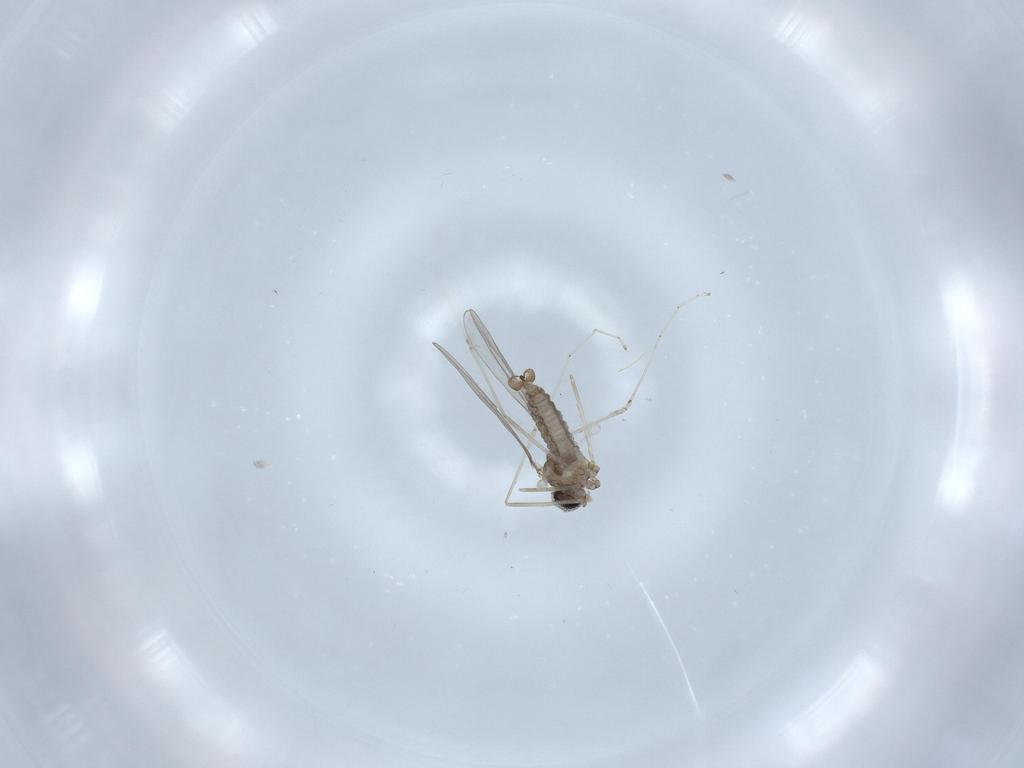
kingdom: Animalia
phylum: Arthropoda
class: Insecta
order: Diptera
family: Cecidomyiidae
